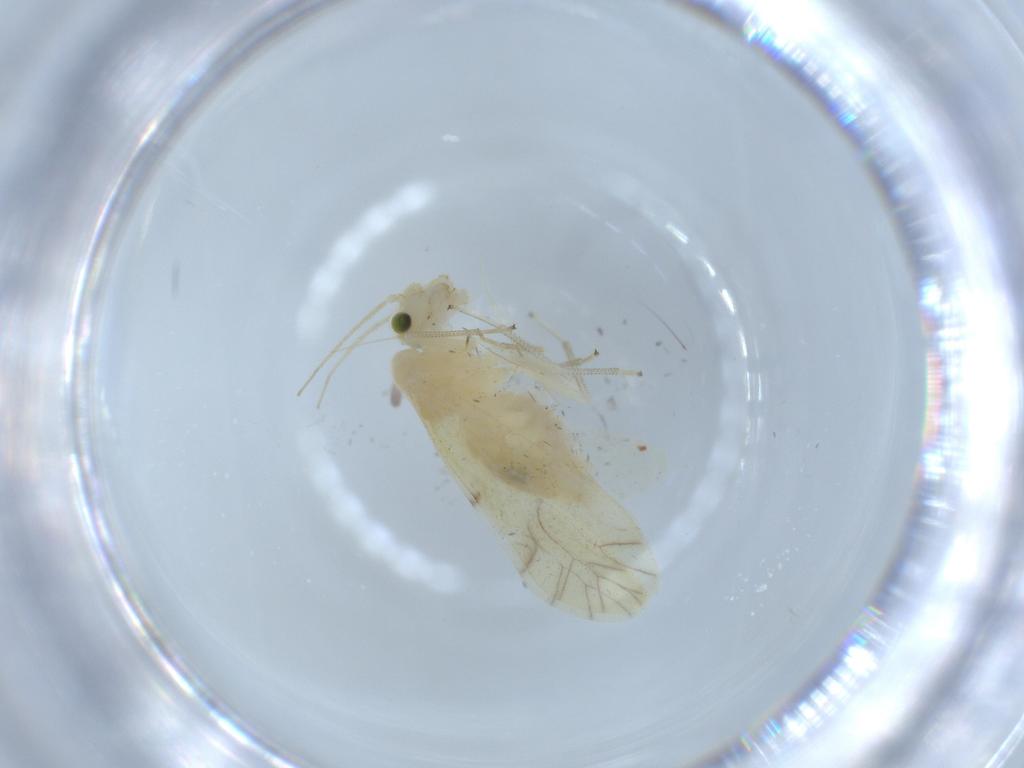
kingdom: Animalia
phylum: Arthropoda
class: Insecta
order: Psocodea
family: Caeciliusidae
